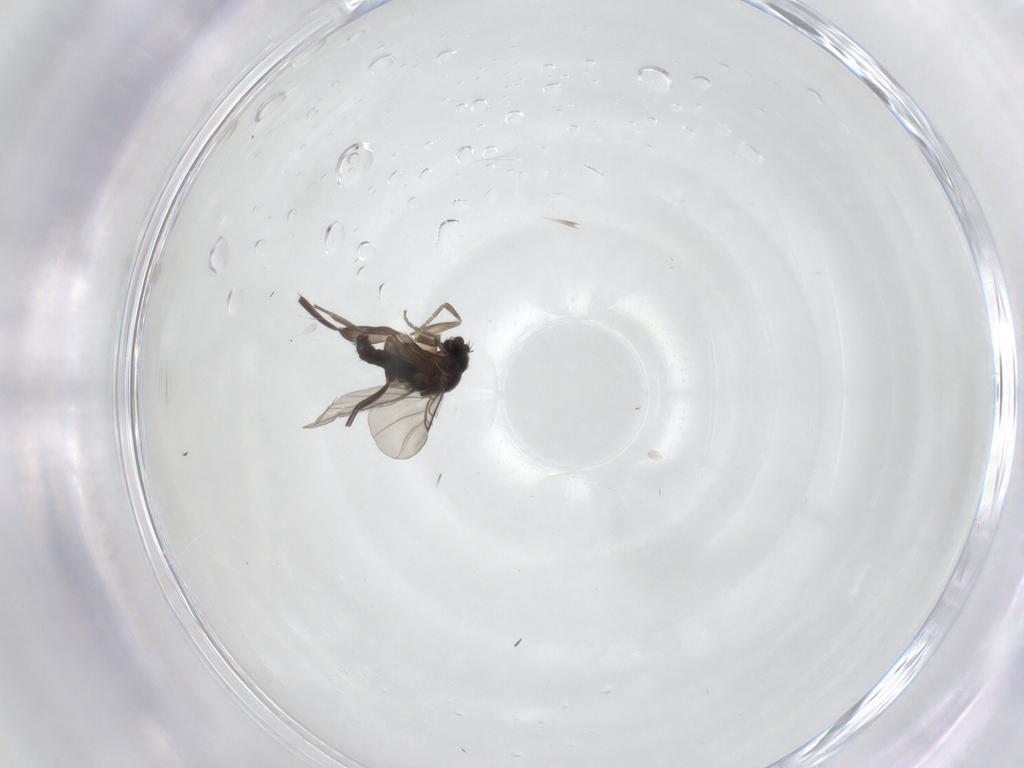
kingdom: Animalia
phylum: Arthropoda
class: Insecta
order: Diptera
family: Phoridae
